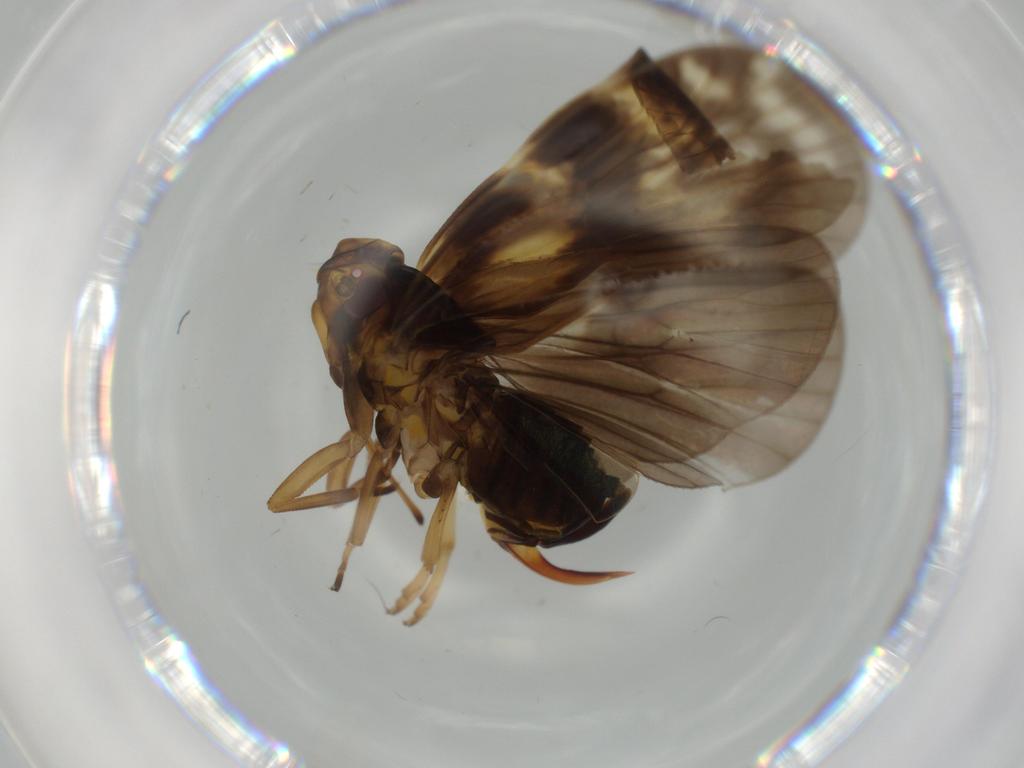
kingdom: Animalia
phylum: Arthropoda
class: Insecta
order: Hemiptera
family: Cixiidae
